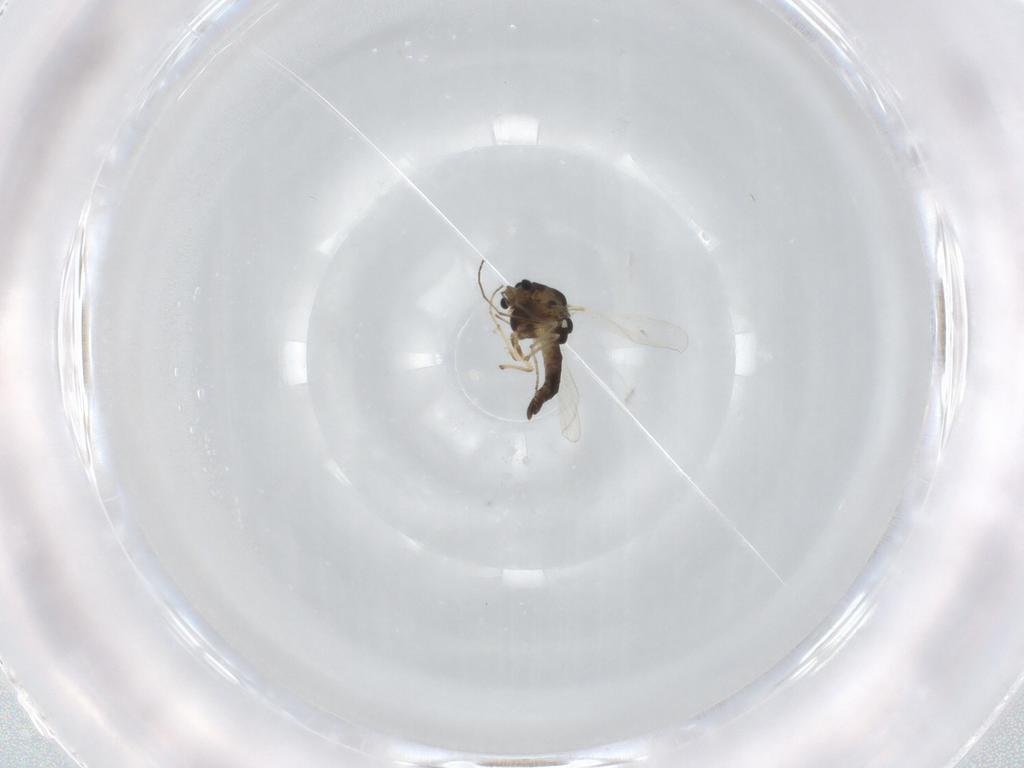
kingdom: Animalia
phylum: Arthropoda
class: Insecta
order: Diptera
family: Chironomidae
